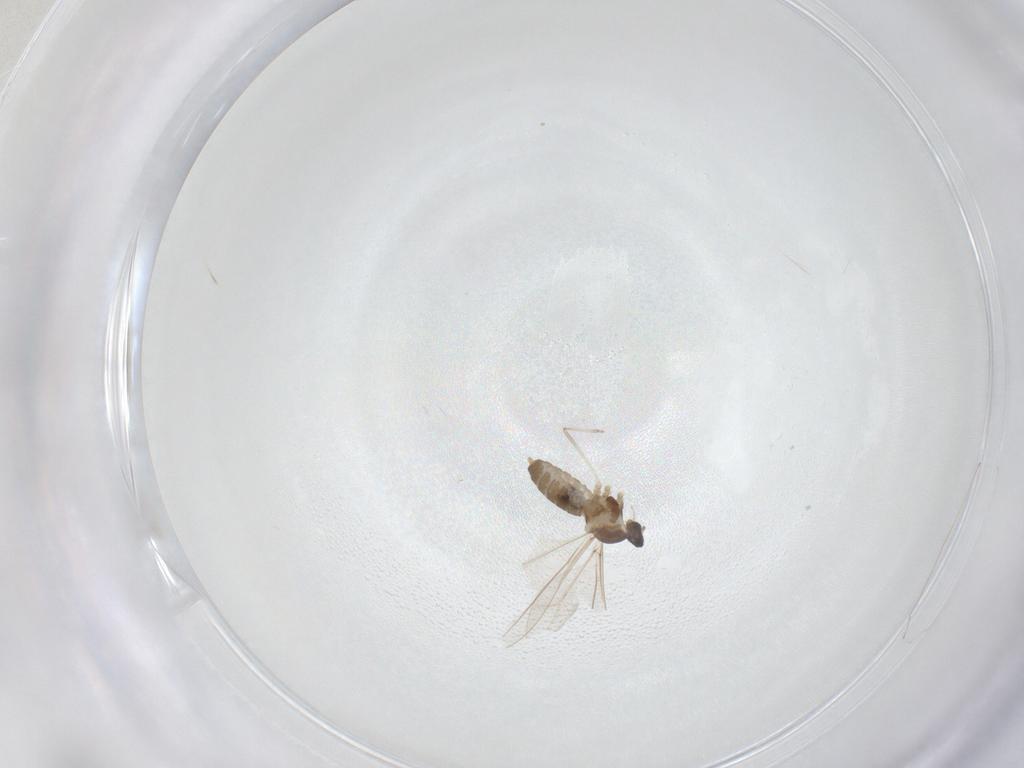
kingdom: Animalia
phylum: Arthropoda
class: Insecta
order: Diptera
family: Cecidomyiidae
